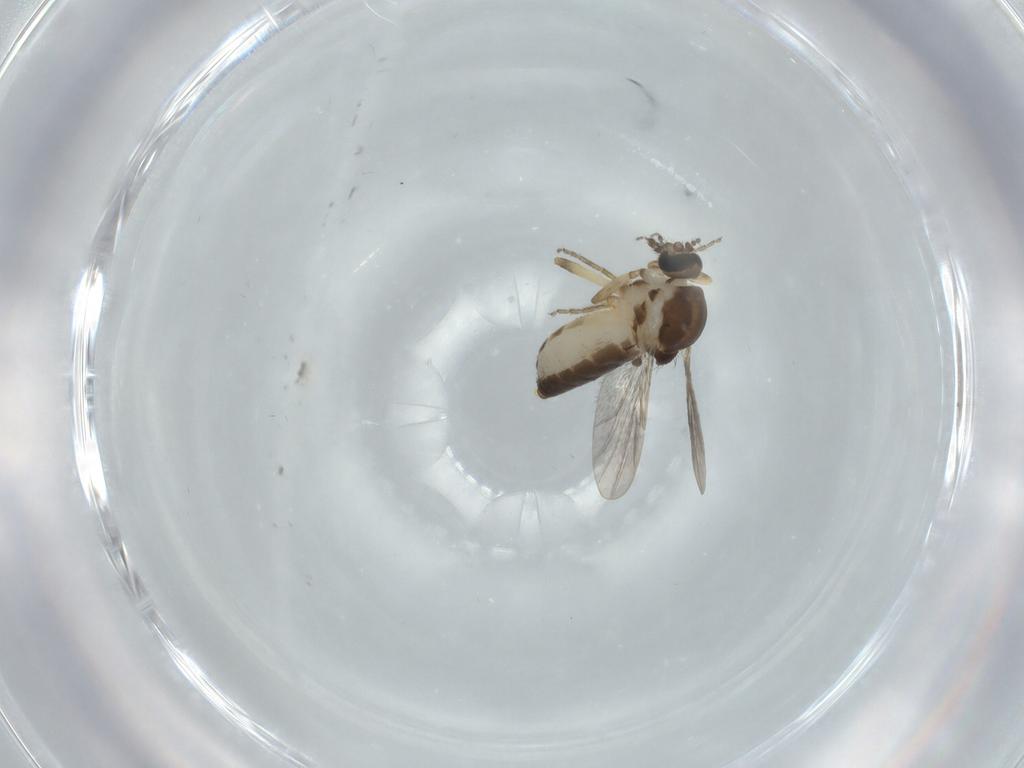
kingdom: Animalia
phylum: Arthropoda
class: Insecta
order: Diptera
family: Ceratopogonidae
